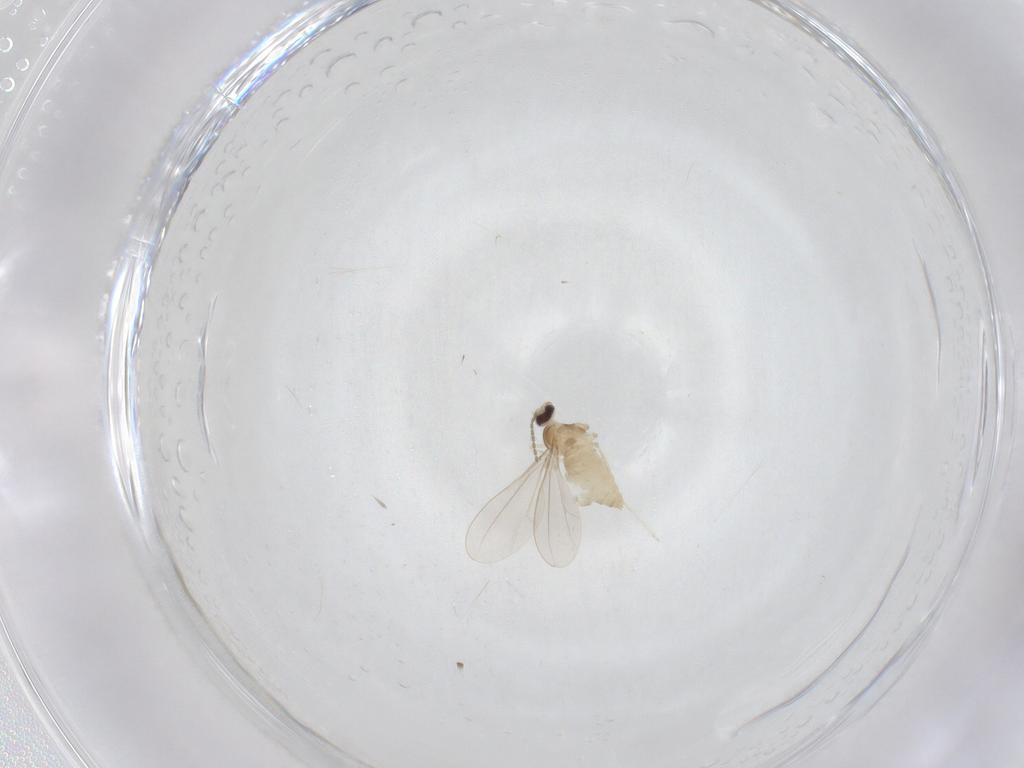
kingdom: Animalia
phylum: Arthropoda
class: Insecta
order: Diptera
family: Cecidomyiidae
